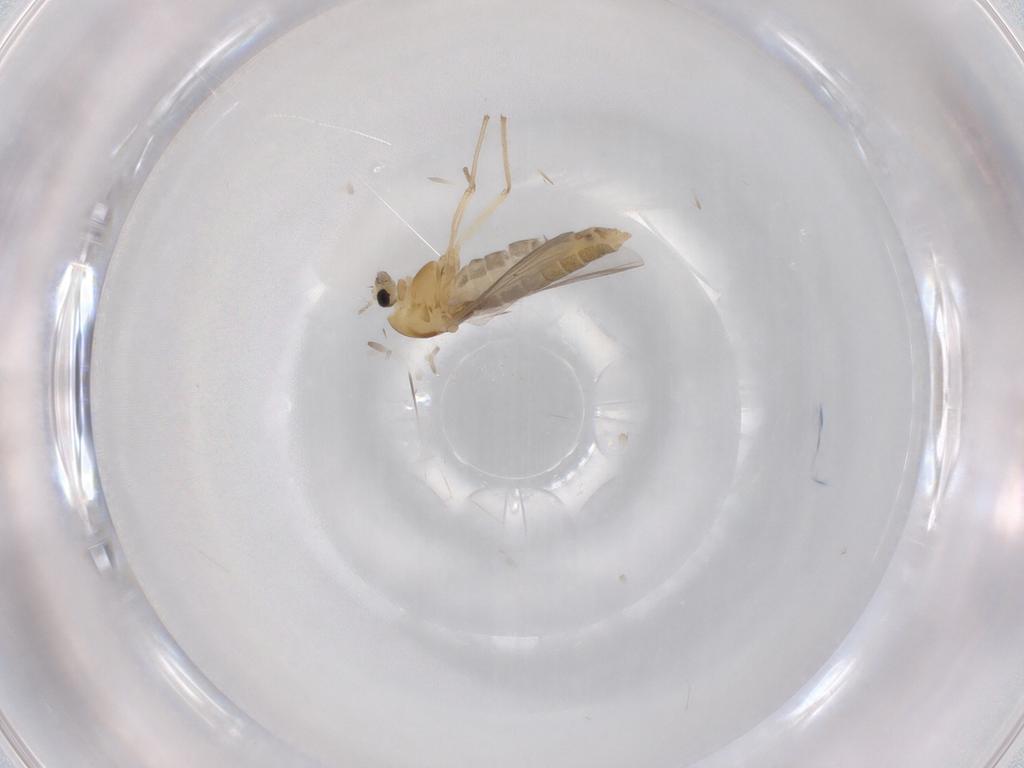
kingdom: Animalia
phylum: Arthropoda
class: Insecta
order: Diptera
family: Chironomidae
